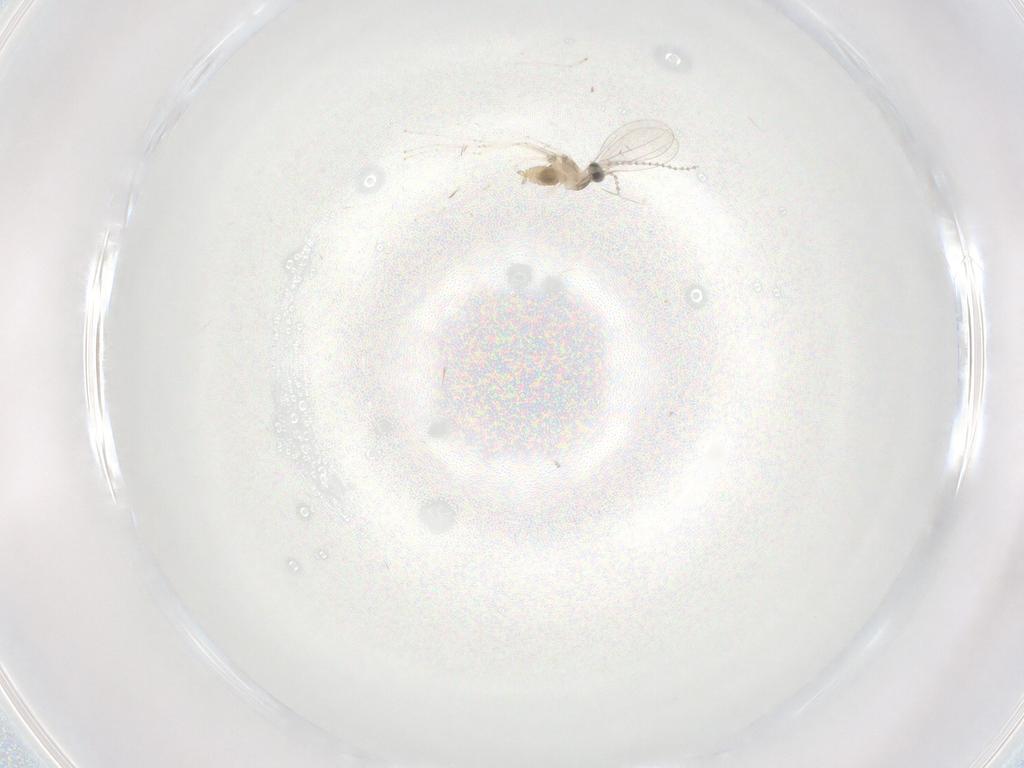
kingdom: Animalia
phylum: Arthropoda
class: Insecta
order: Diptera
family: Cecidomyiidae
